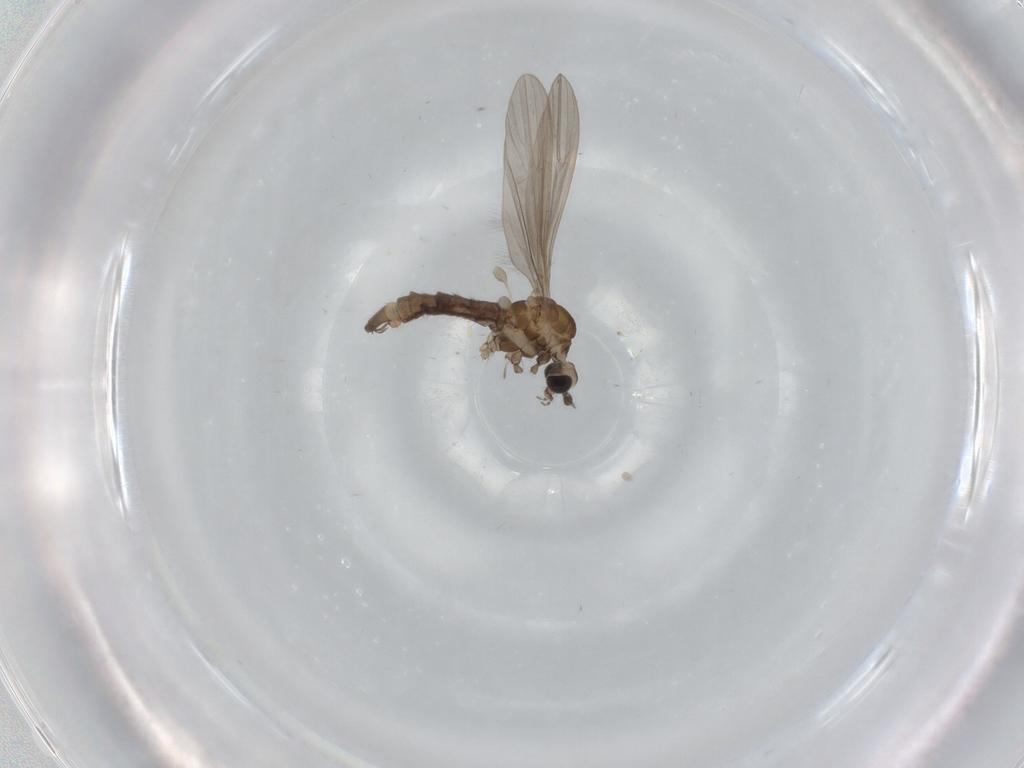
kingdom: Animalia
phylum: Arthropoda
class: Insecta
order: Diptera
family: Limoniidae
